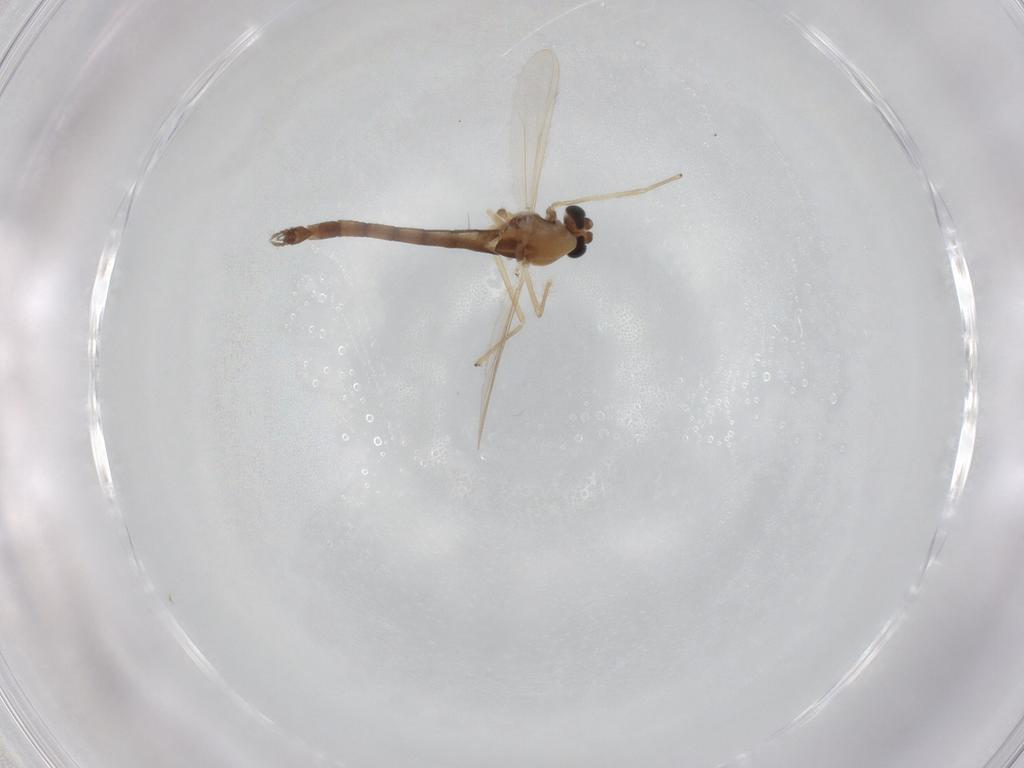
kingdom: Animalia
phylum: Arthropoda
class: Insecta
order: Diptera
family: Chironomidae
